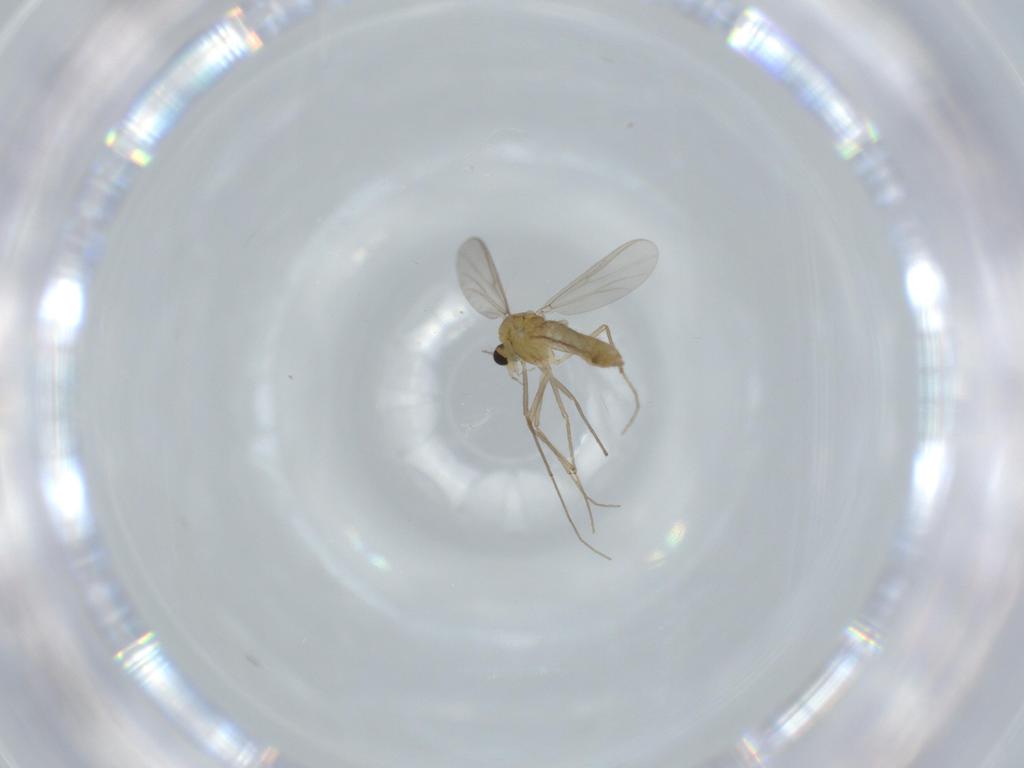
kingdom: Animalia
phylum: Arthropoda
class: Insecta
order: Diptera
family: Chironomidae
